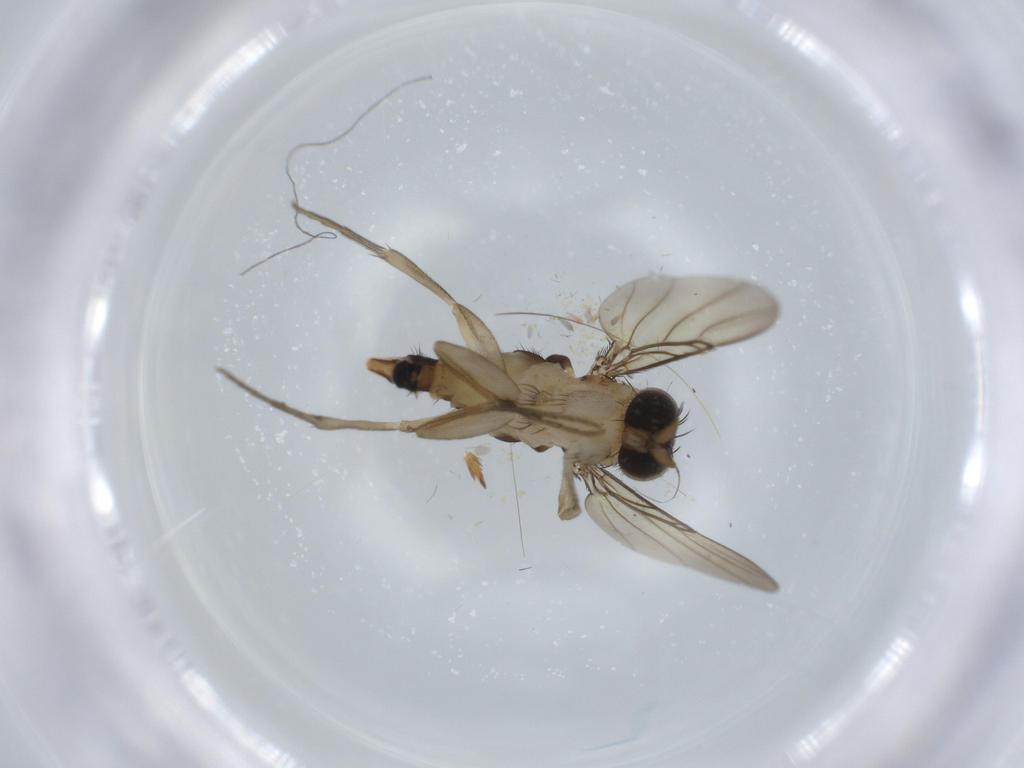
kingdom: Animalia
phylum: Arthropoda
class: Insecta
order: Diptera
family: Phoridae
